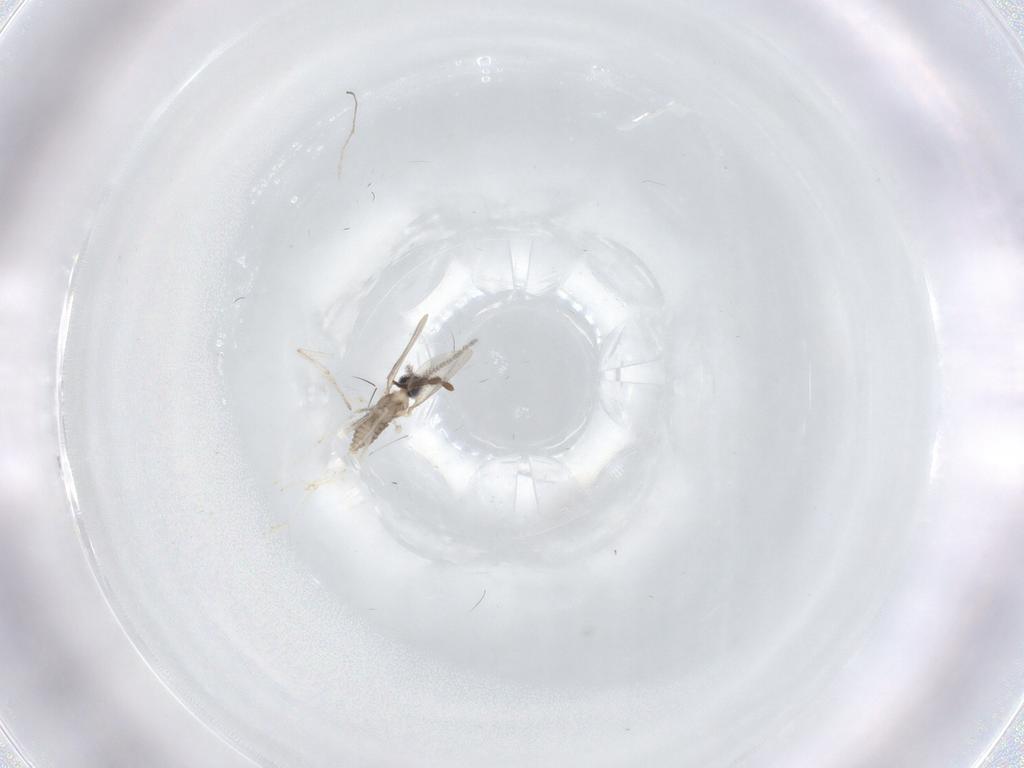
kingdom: Animalia
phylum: Arthropoda
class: Insecta
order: Diptera
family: Cecidomyiidae
